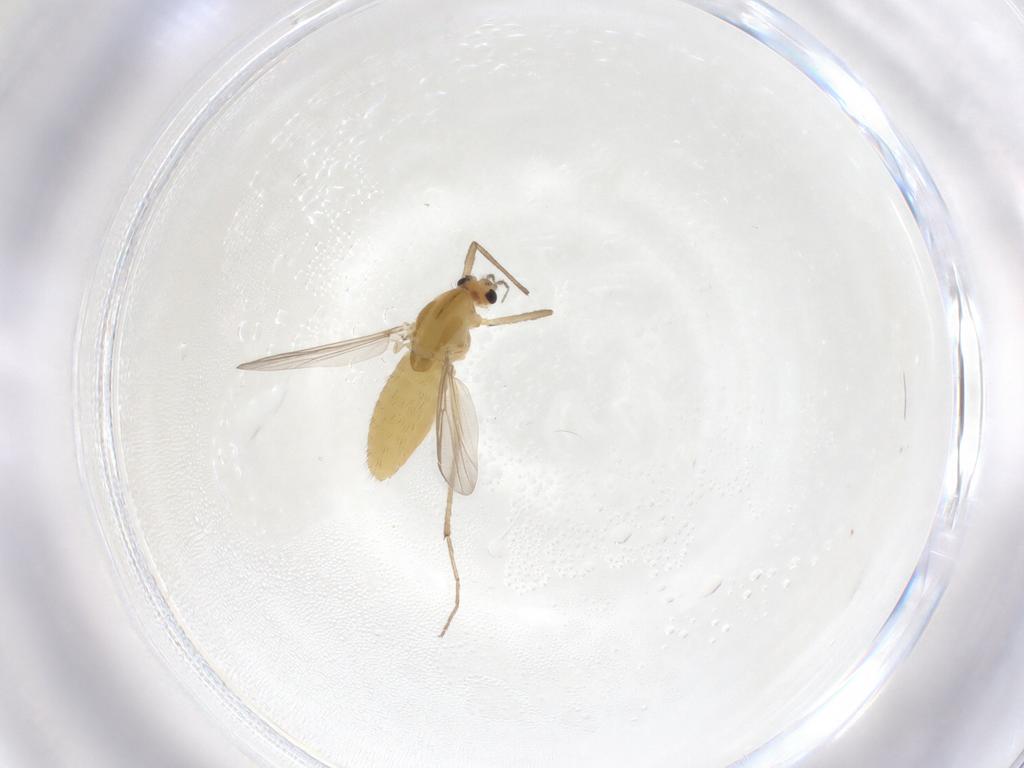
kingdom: Animalia
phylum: Arthropoda
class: Insecta
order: Diptera
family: Chironomidae
